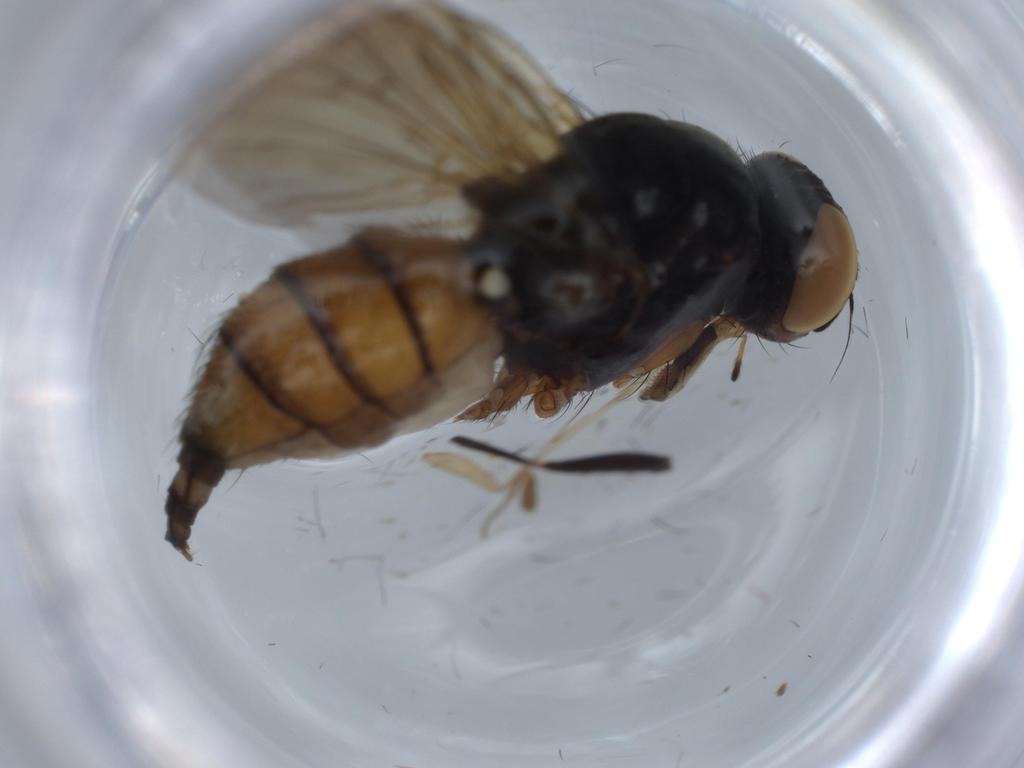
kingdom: Animalia
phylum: Arthropoda
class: Insecta
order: Diptera
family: Anthomyiidae
